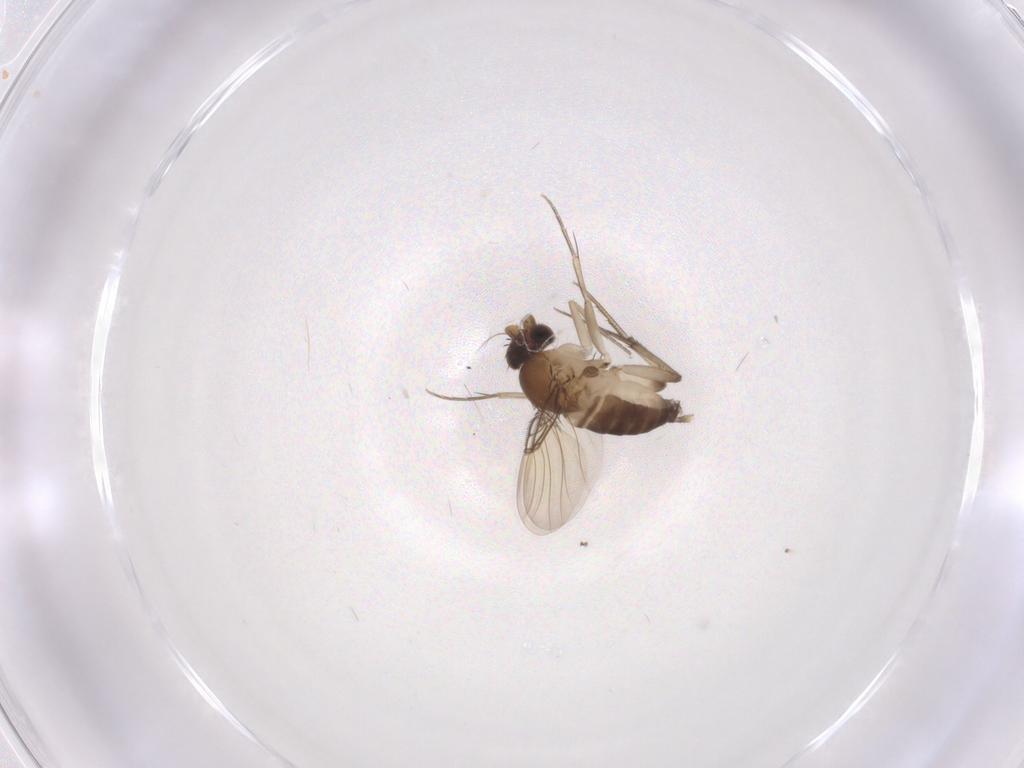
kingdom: Animalia
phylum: Arthropoda
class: Insecta
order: Diptera
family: Phoridae
